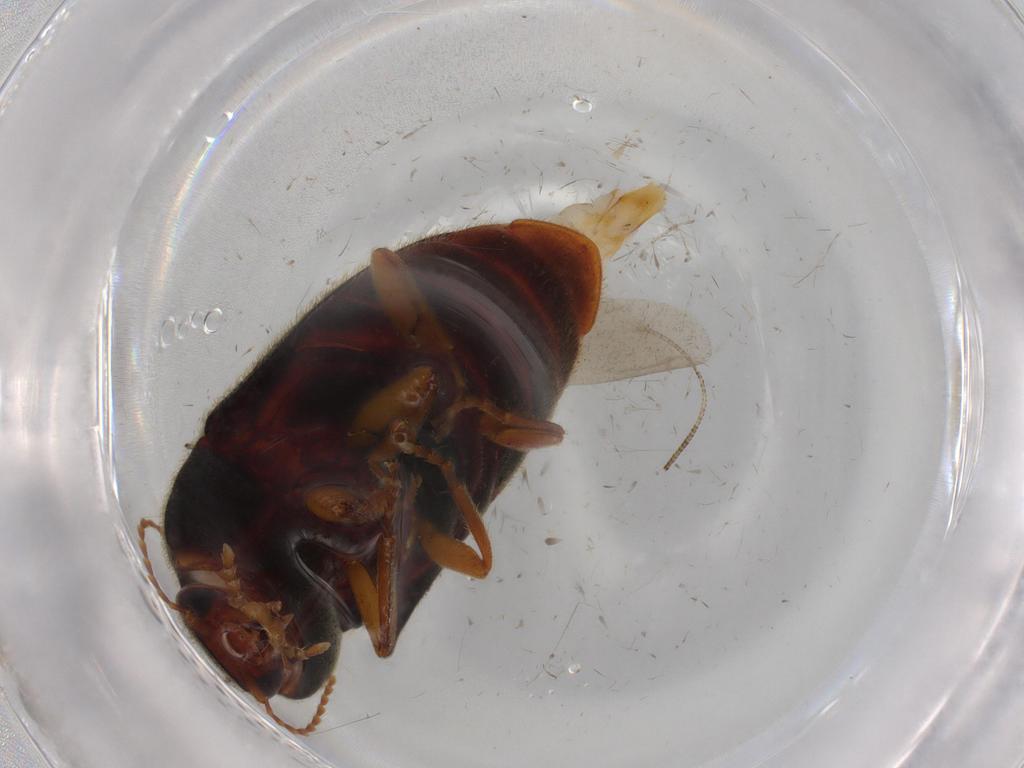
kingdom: Animalia
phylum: Arthropoda
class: Insecta
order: Coleoptera
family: Elateridae
